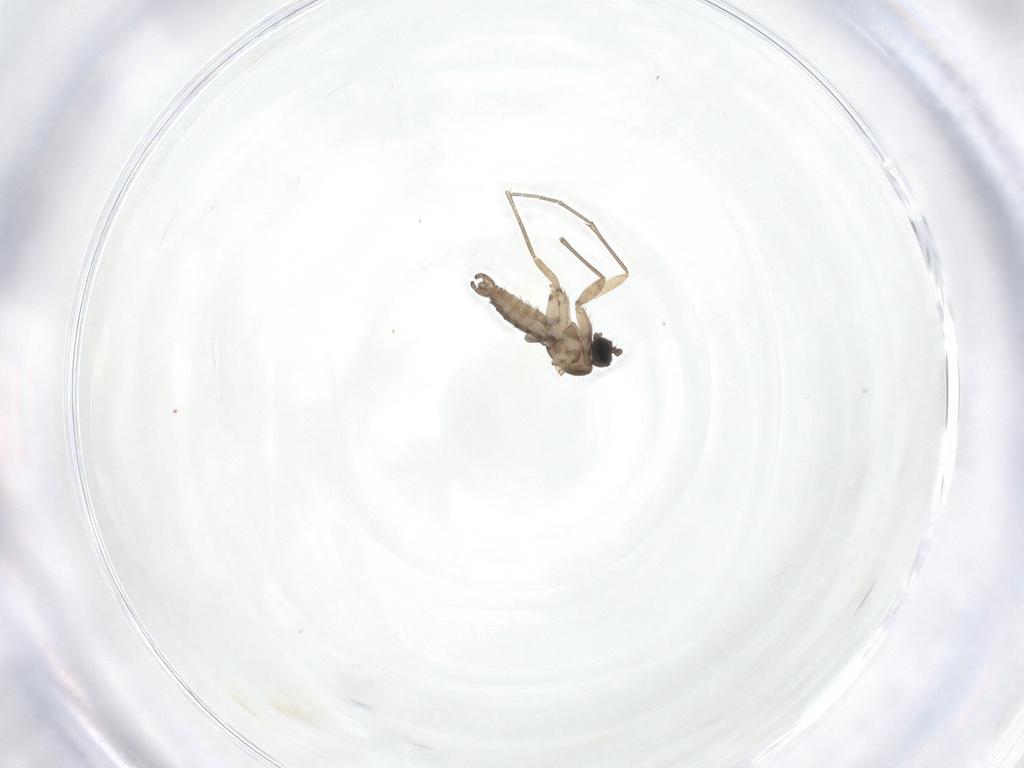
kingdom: Animalia
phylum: Arthropoda
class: Insecta
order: Diptera
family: Sciaridae
